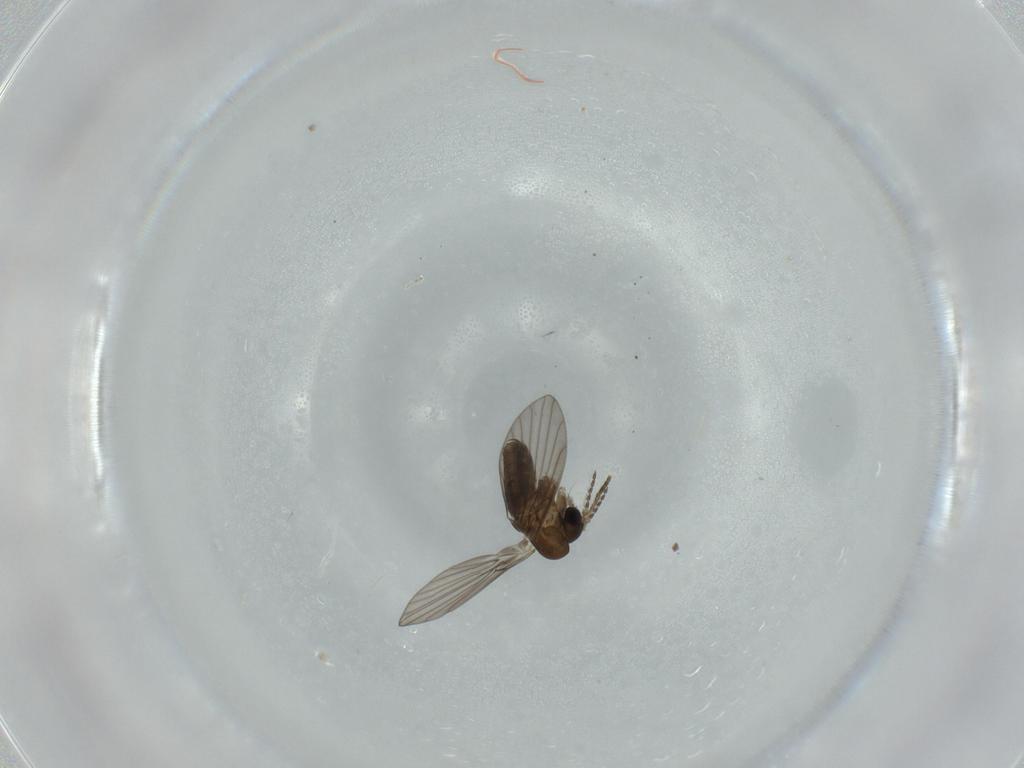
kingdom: Animalia
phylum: Arthropoda
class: Insecta
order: Diptera
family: Psychodidae
